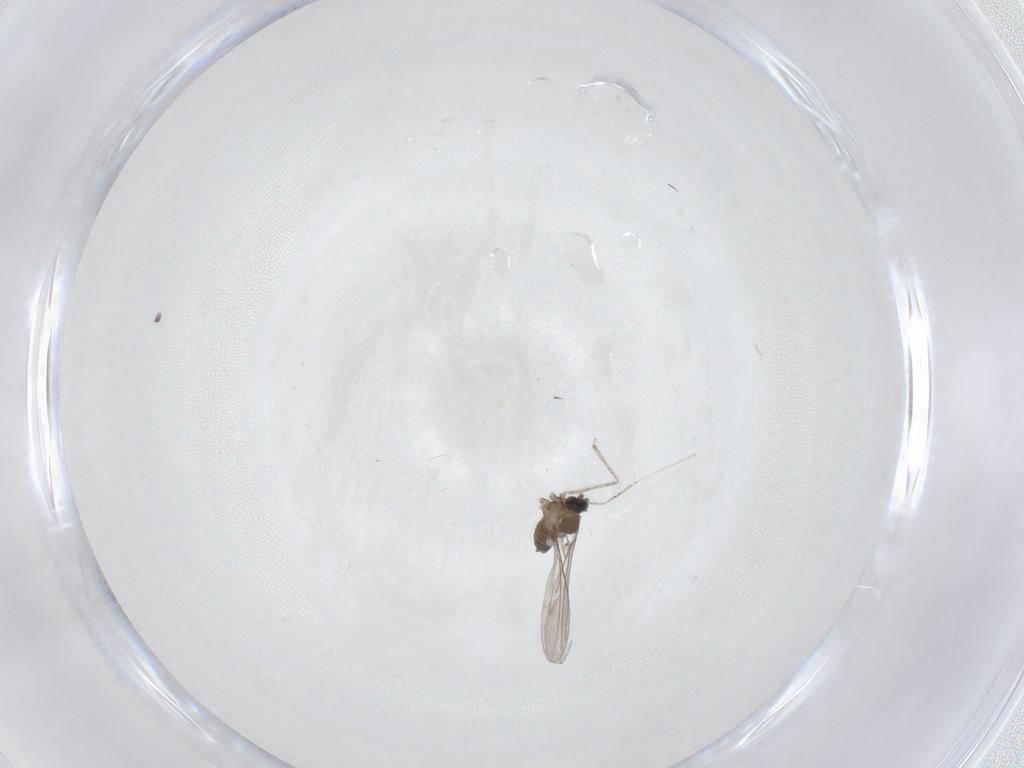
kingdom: Animalia
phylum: Arthropoda
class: Insecta
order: Diptera
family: Cecidomyiidae
